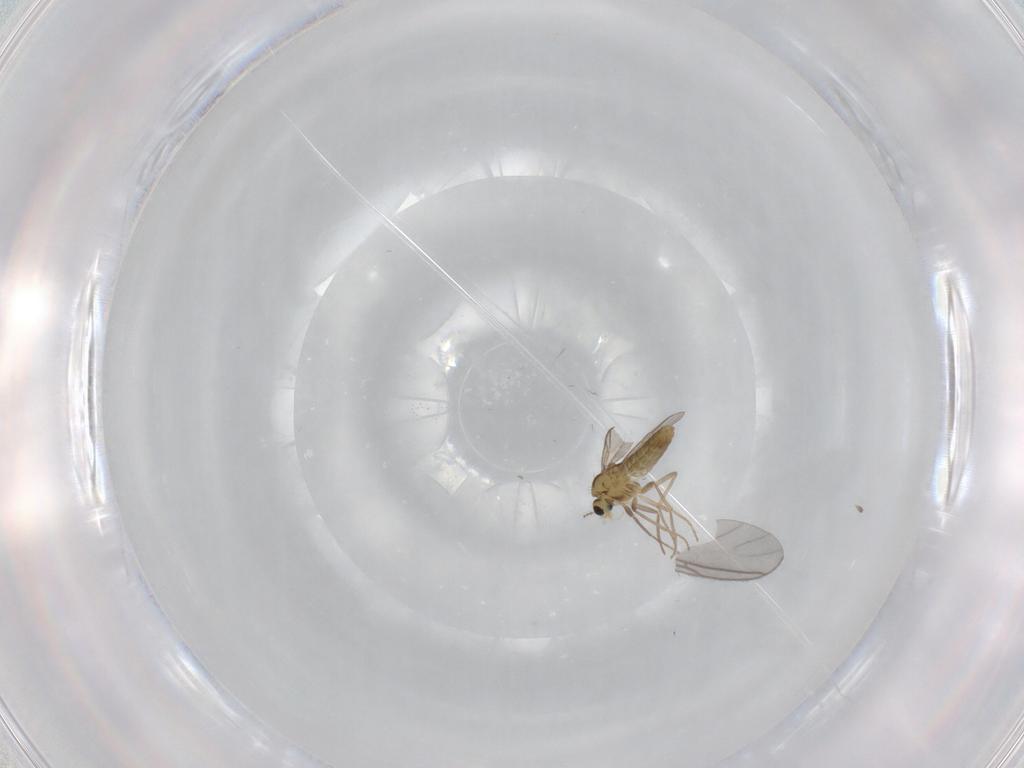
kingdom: Animalia
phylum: Arthropoda
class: Insecta
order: Diptera
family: Chironomidae
